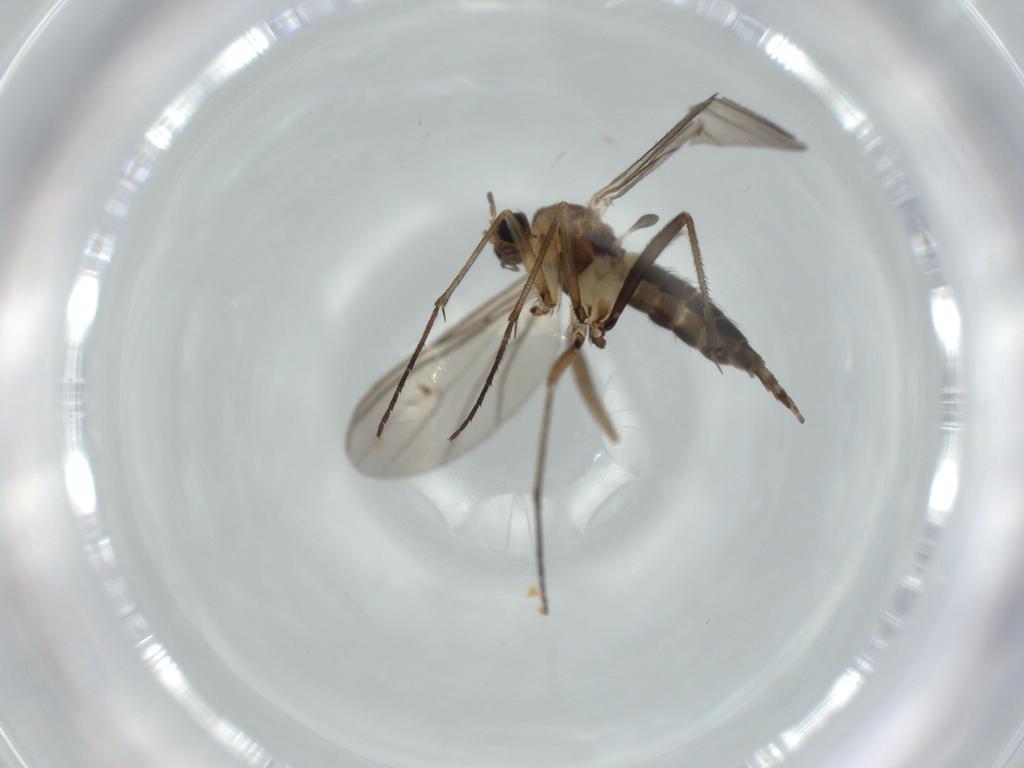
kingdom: Animalia
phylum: Arthropoda
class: Insecta
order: Diptera
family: Sciaridae
